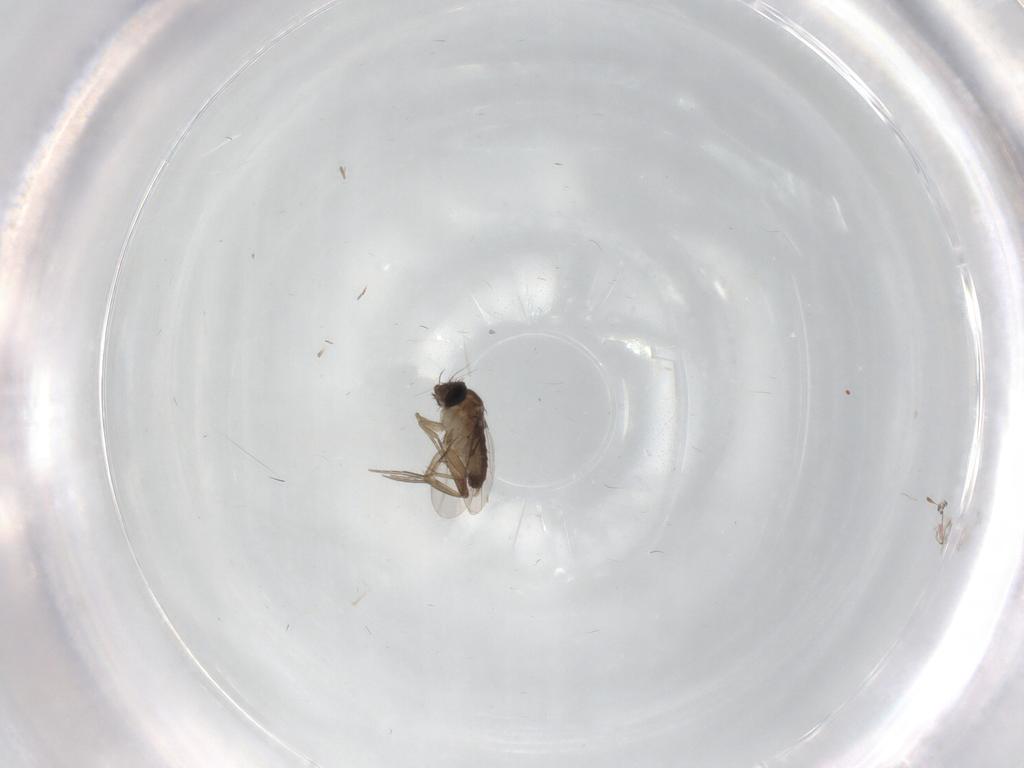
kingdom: Animalia
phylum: Arthropoda
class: Insecta
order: Diptera
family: Phoridae
